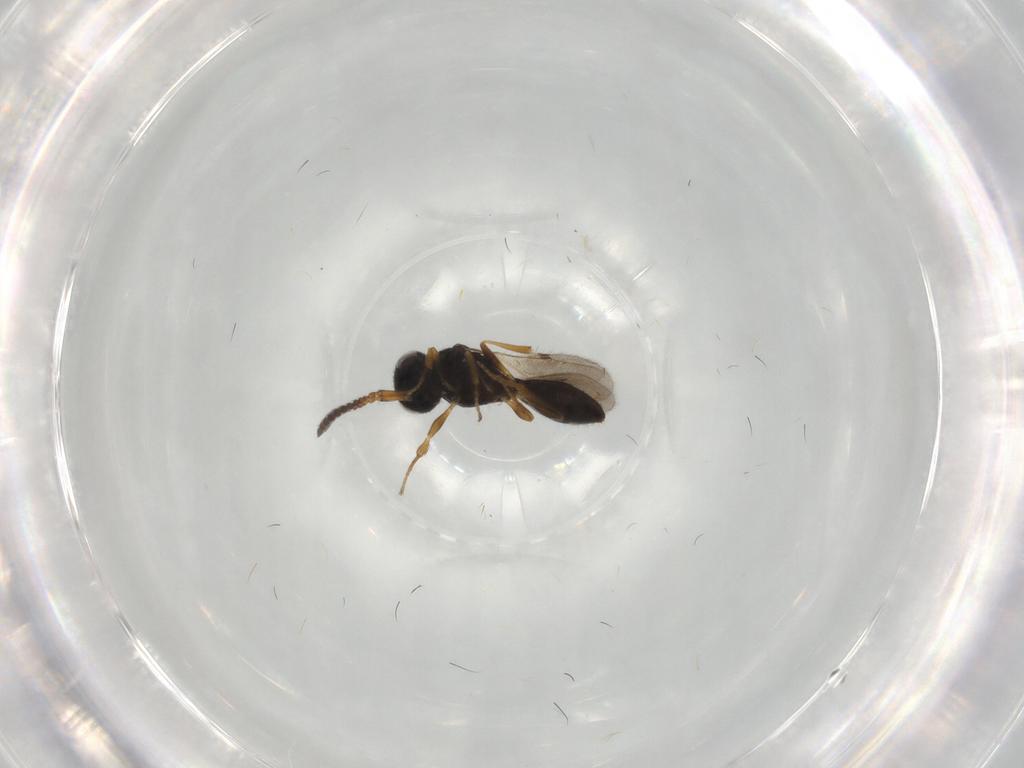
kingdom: Animalia
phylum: Arthropoda
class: Insecta
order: Hymenoptera
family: Scelionidae
